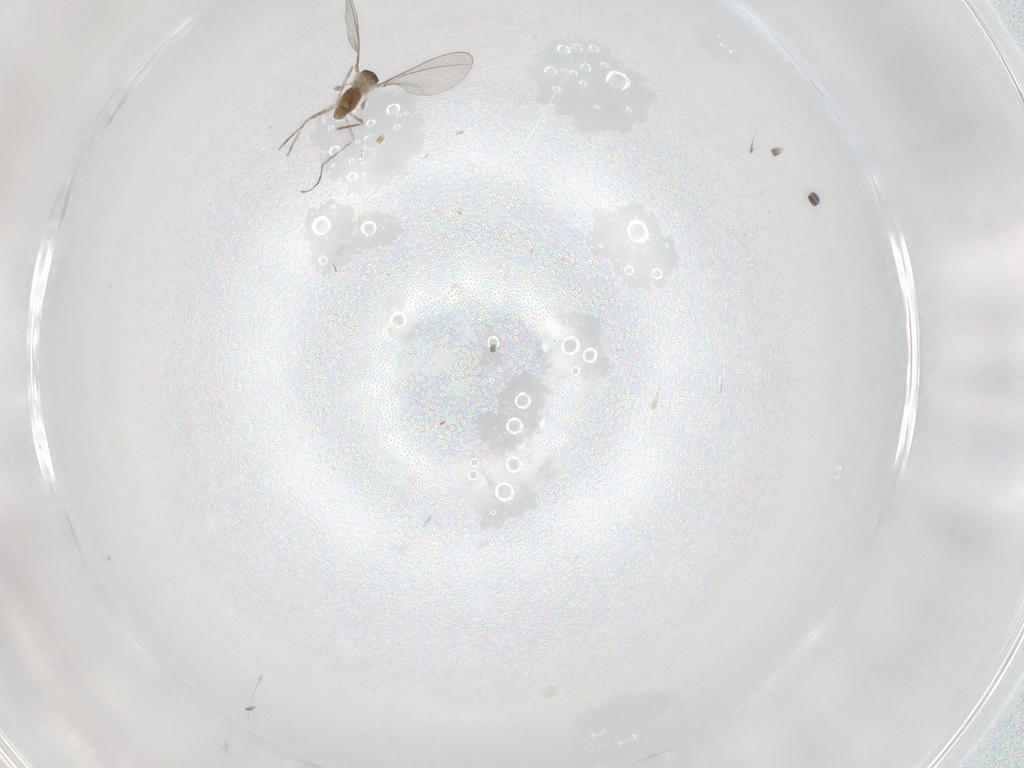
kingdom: Animalia
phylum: Arthropoda
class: Insecta
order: Diptera
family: Cecidomyiidae
